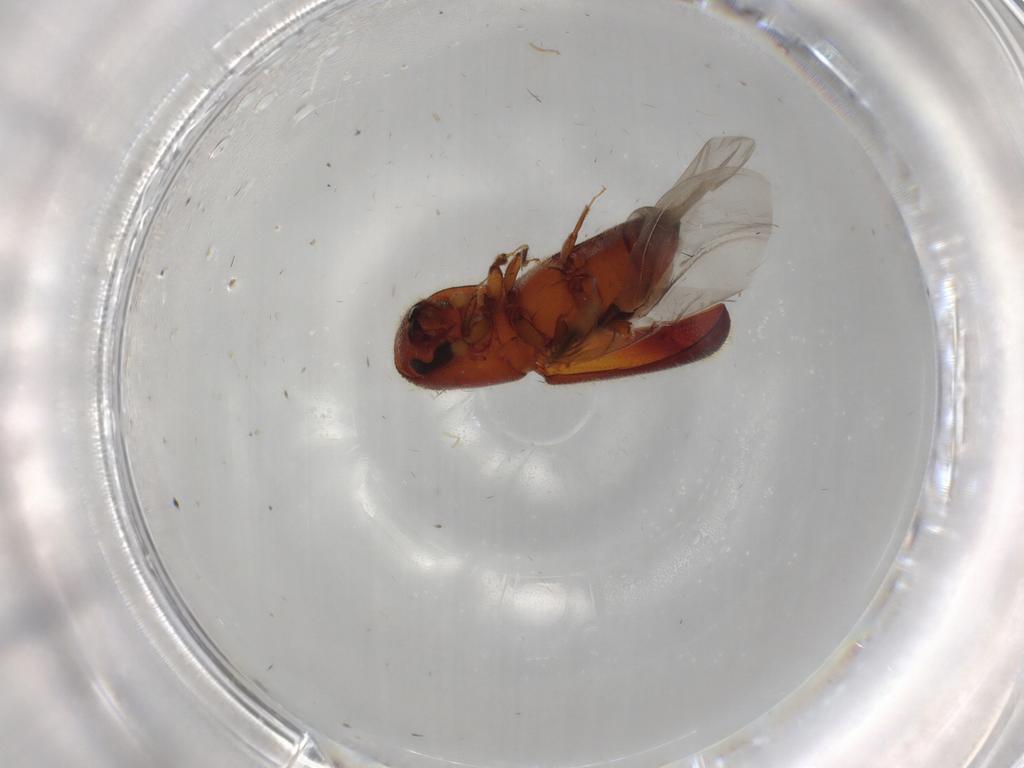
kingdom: Animalia
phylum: Arthropoda
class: Insecta
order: Coleoptera
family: Curculionidae
